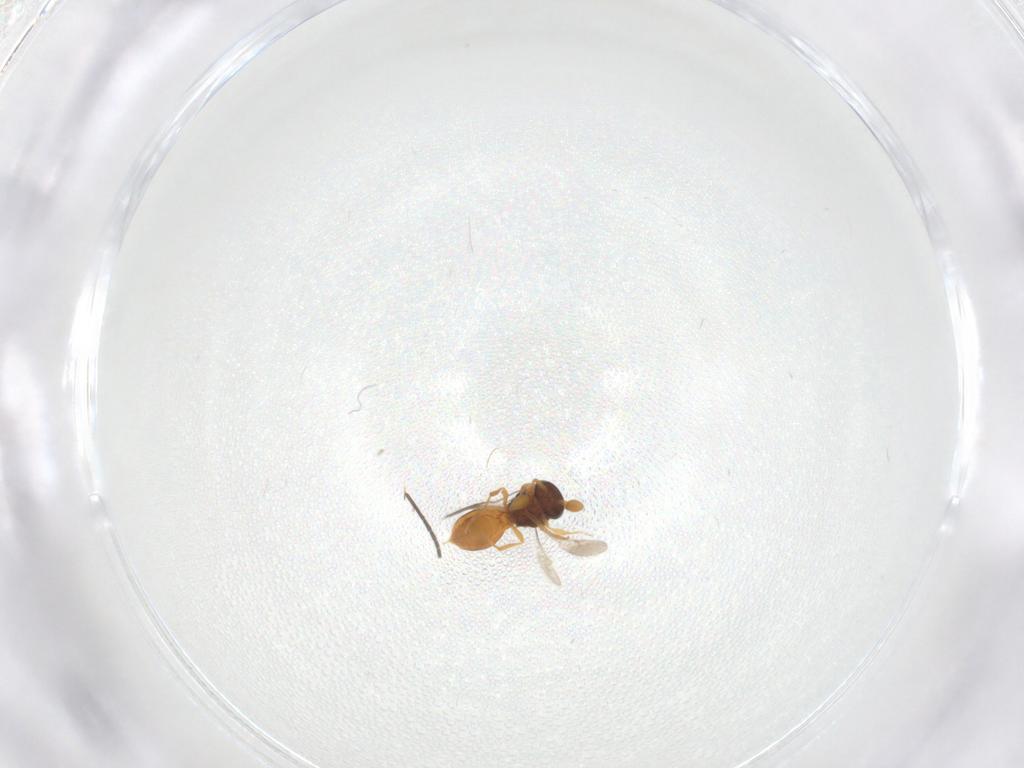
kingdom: Animalia
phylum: Arthropoda
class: Insecta
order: Hymenoptera
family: Scelionidae
